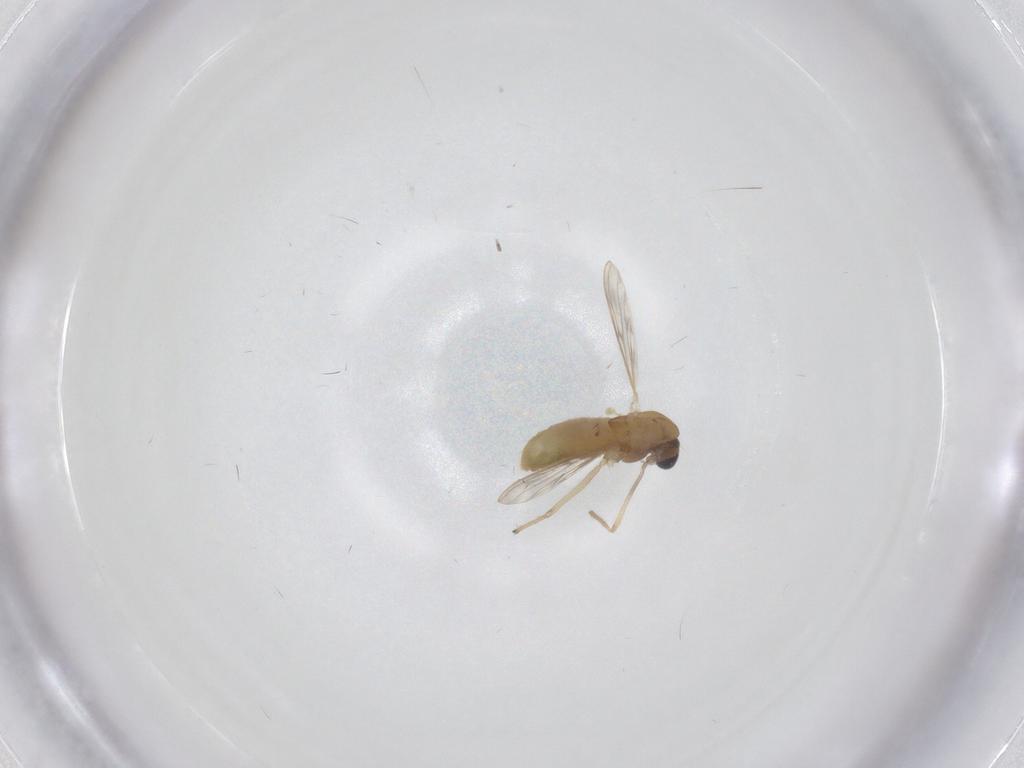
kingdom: Animalia
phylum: Arthropoda
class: Insecta
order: Diptera
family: Chironomidae
